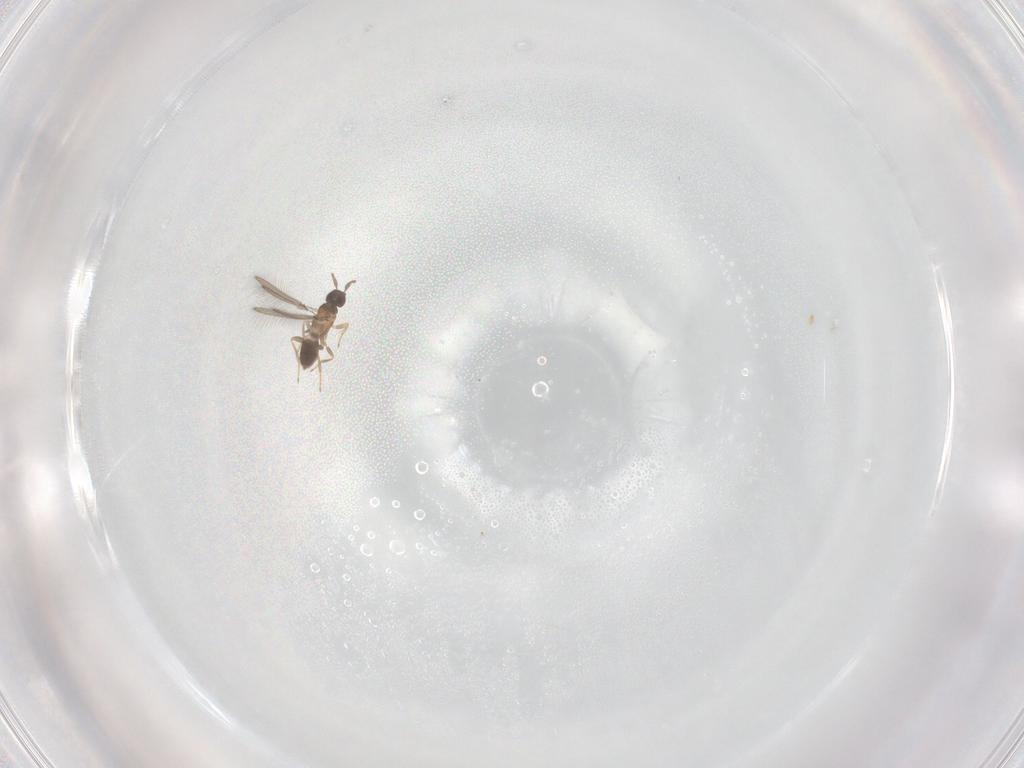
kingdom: Animalia
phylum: Arthropoda
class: Insecta
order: Hymenoptera
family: Mymaridae
